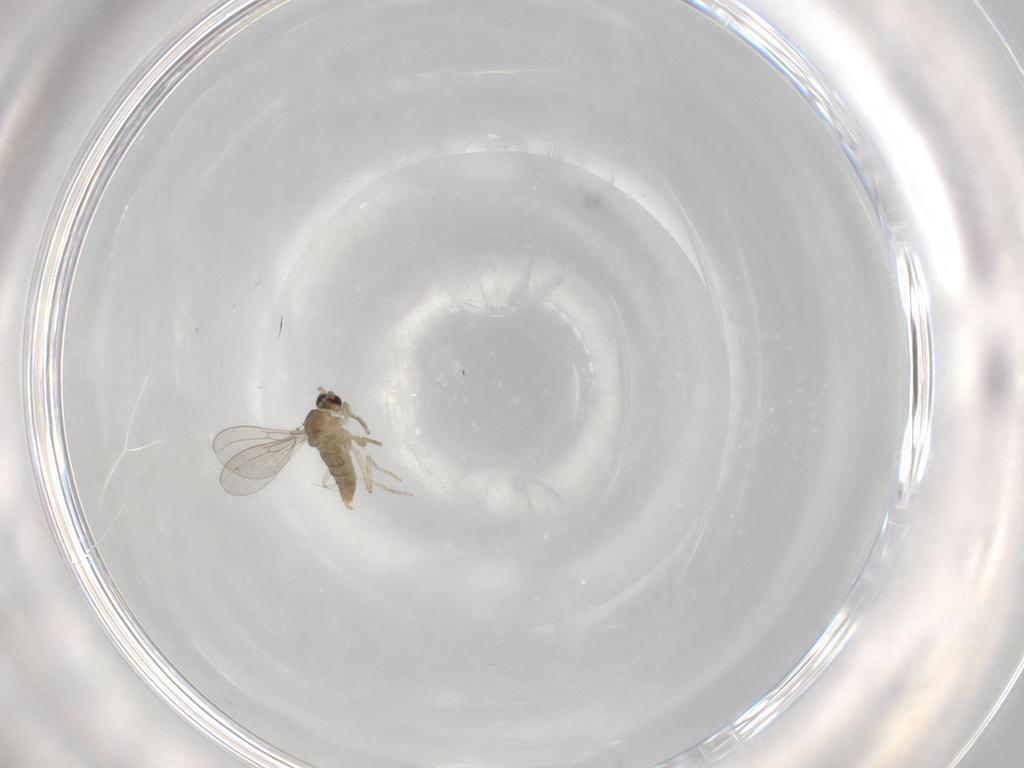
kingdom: Animalia
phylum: Arthropoda
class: Insecta
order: Diptera
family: Cecidomyiidae
